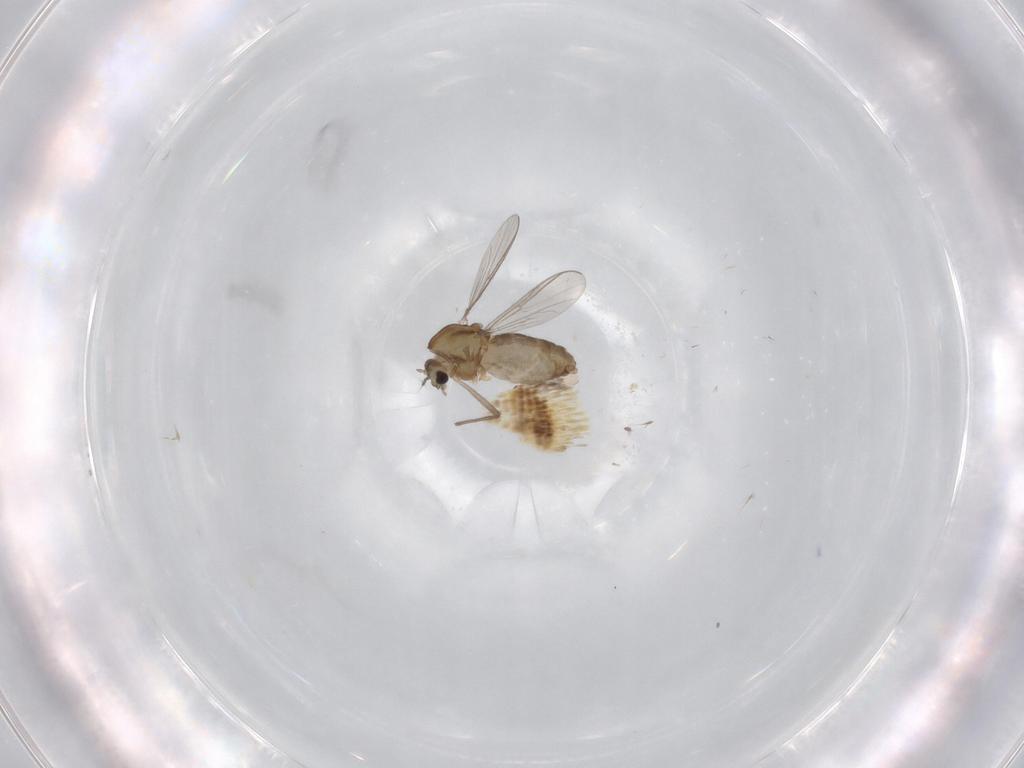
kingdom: Animalia
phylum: Arthropoda
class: Insecta
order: Diptera
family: Chironomidae
